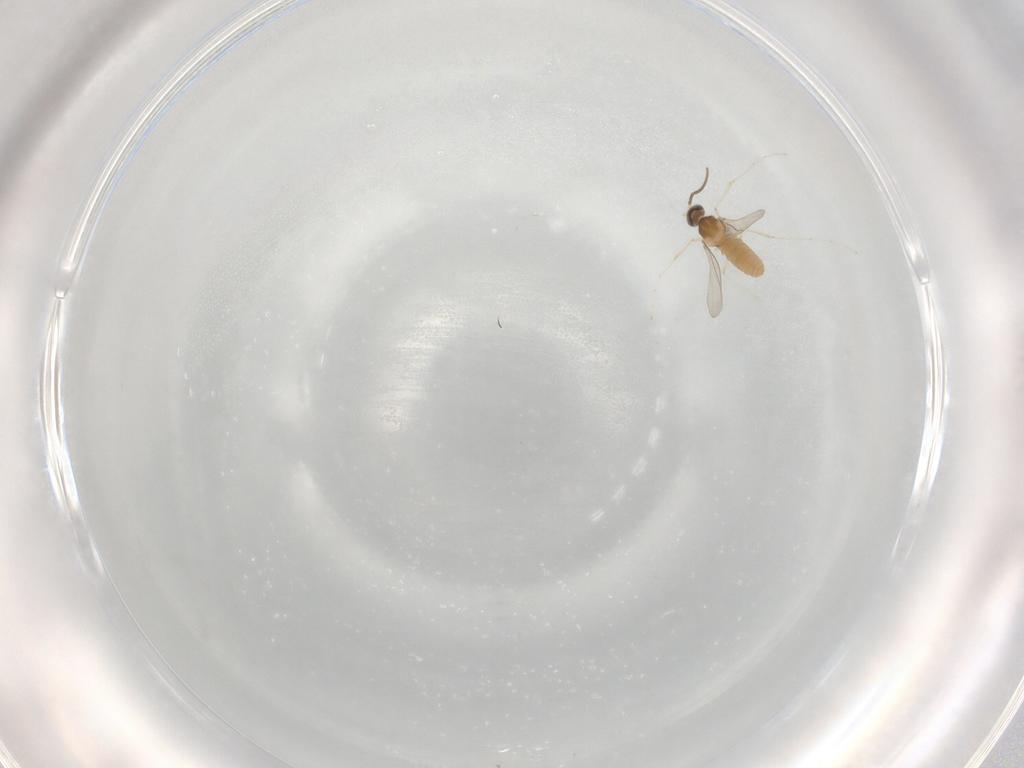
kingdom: Animalia
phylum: Arthropoda
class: Insecta
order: Diptera
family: Cecidomyiidae
